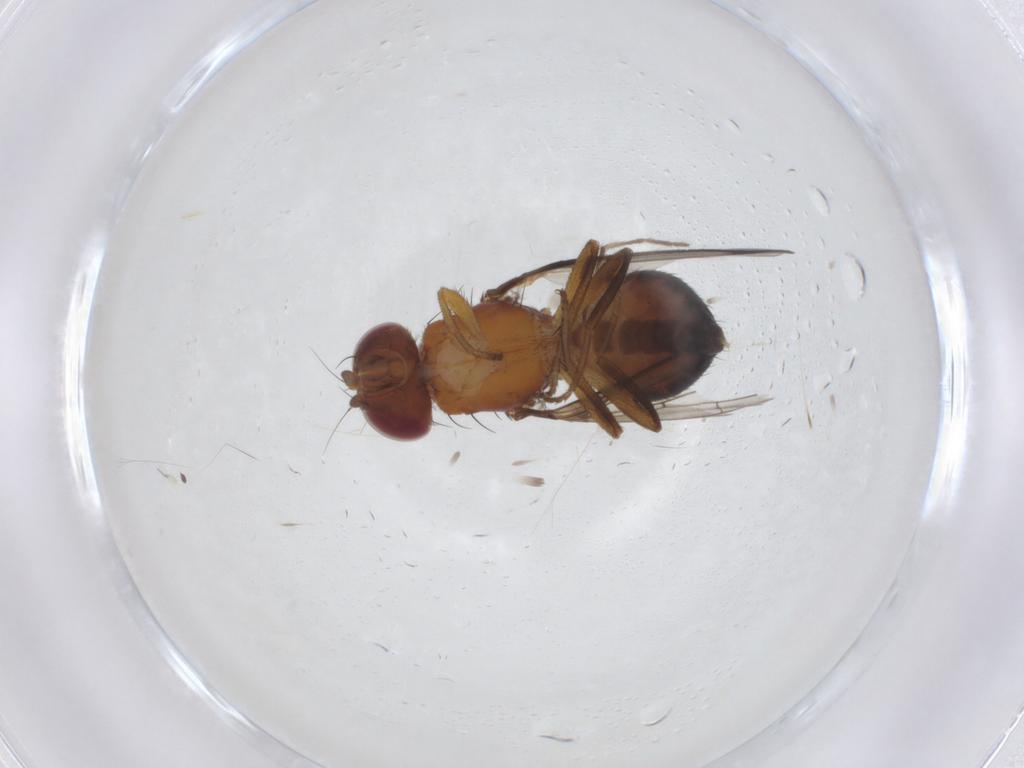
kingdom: Animalia
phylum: Arthropoda
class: Insecta
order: Diptera
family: Piophilidae
